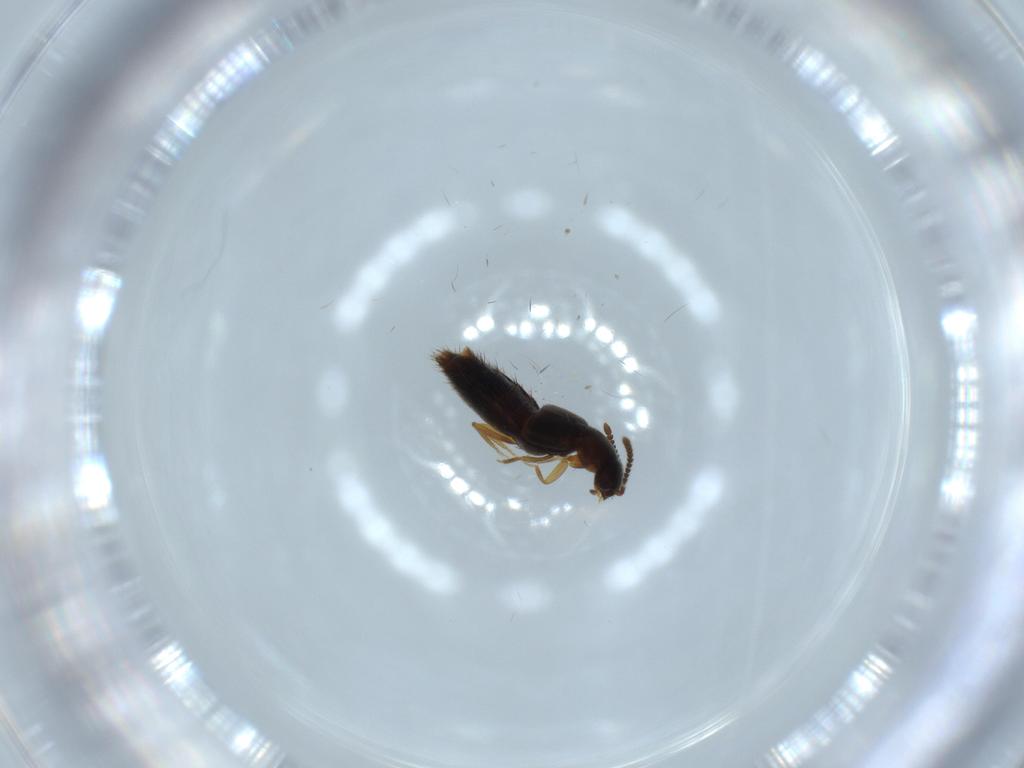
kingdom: Animalia
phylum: Arthropoda
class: Insecta
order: Coleoptera
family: Staphylinidae
